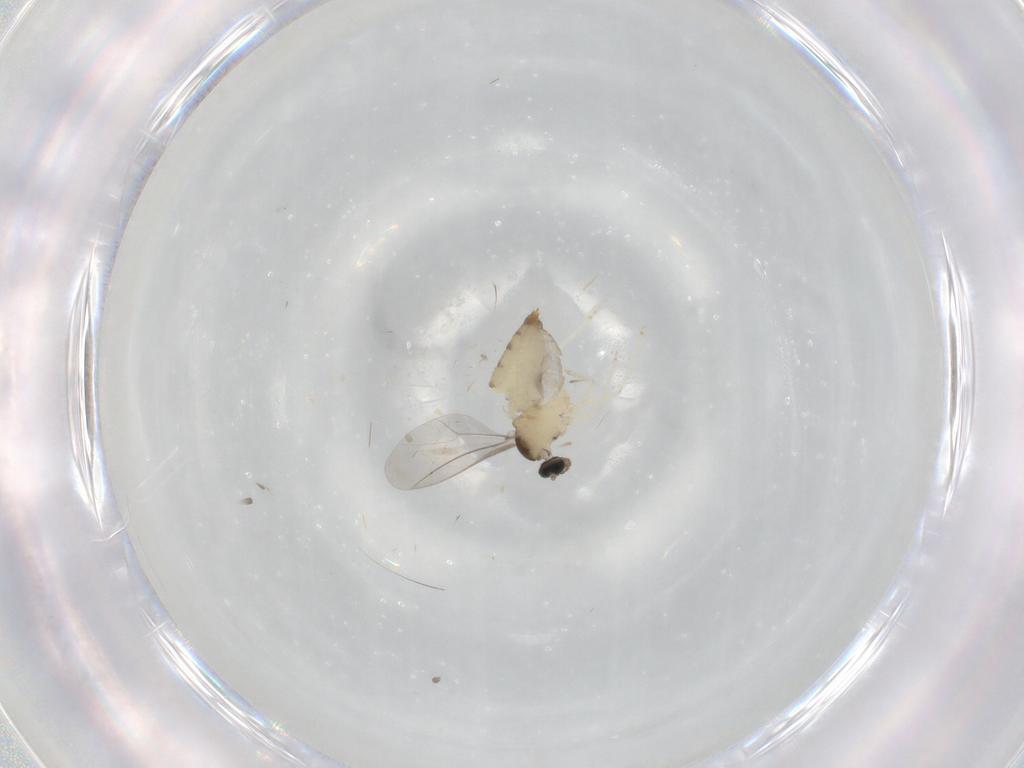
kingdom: Animalia
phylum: Arthropoda
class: Insecta
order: Diptera
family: Cecidomyiidae
